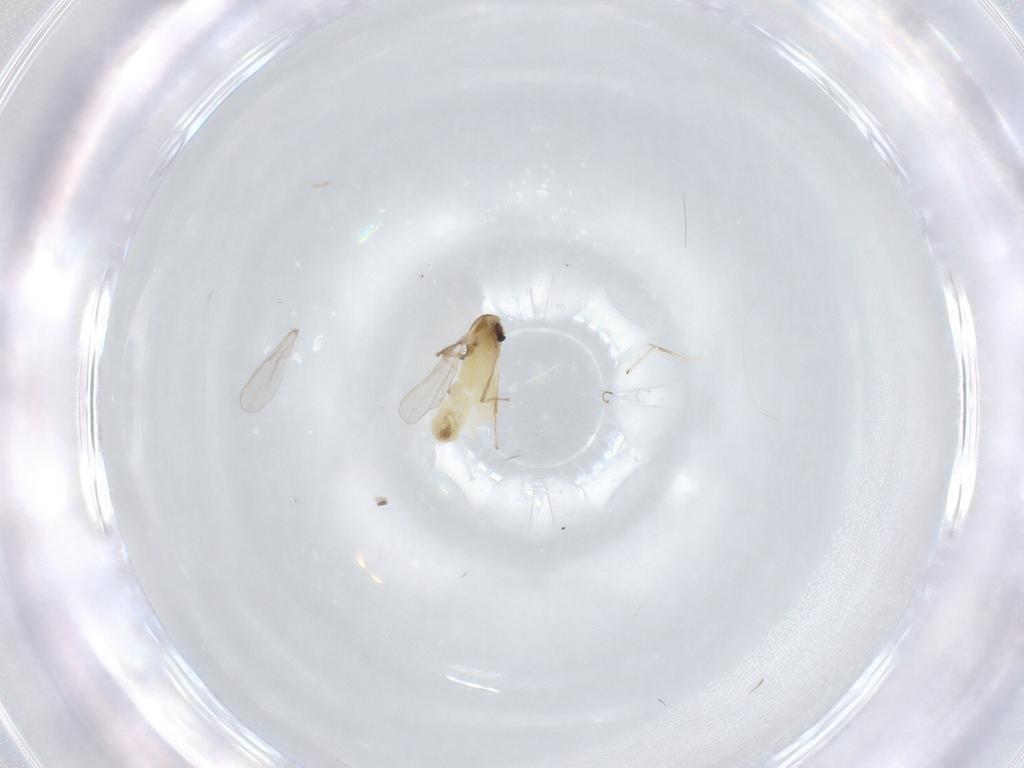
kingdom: Animalia
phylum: Arthropoda
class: Insecta
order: Diptera
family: Chironomidae
